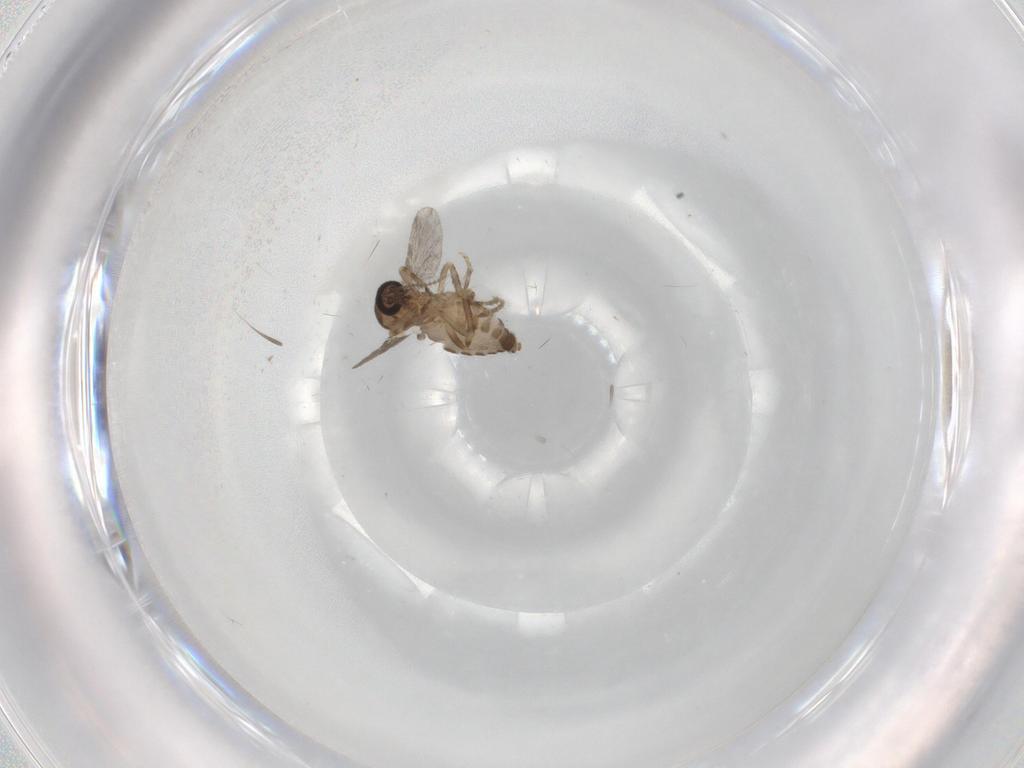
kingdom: Animalia
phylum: Arthropoda
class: Insecta
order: Diptera
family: Ceratopogonidae
